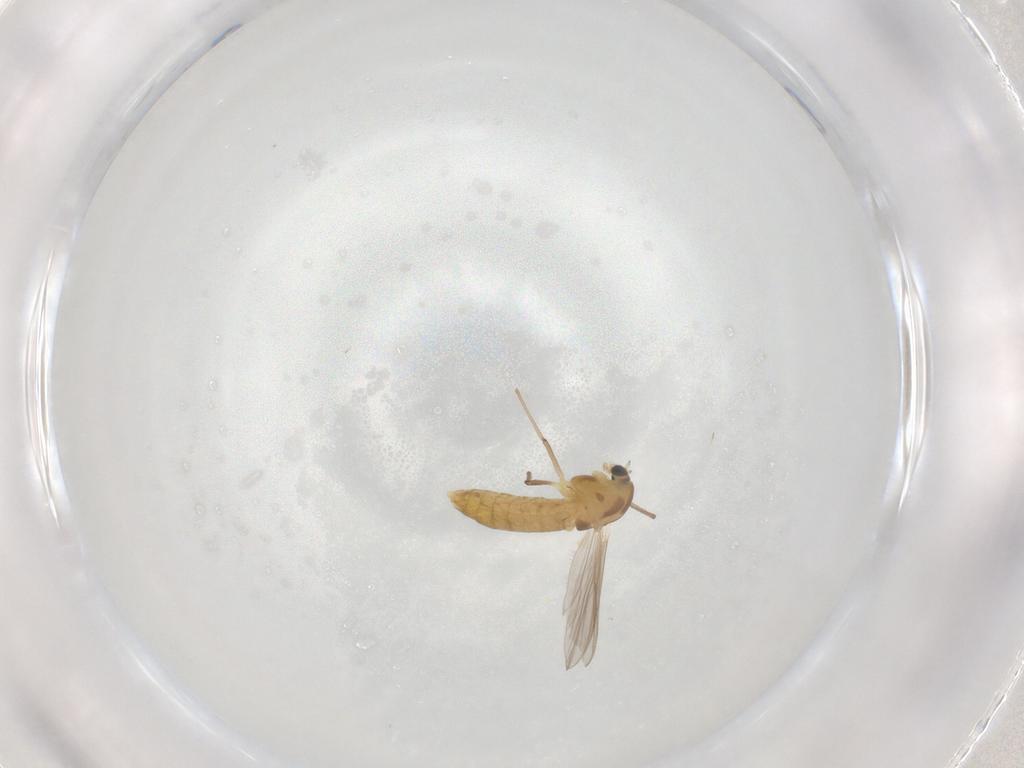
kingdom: Animalia
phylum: Arthropoda
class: Insecta
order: Diptera
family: Chironomidae
